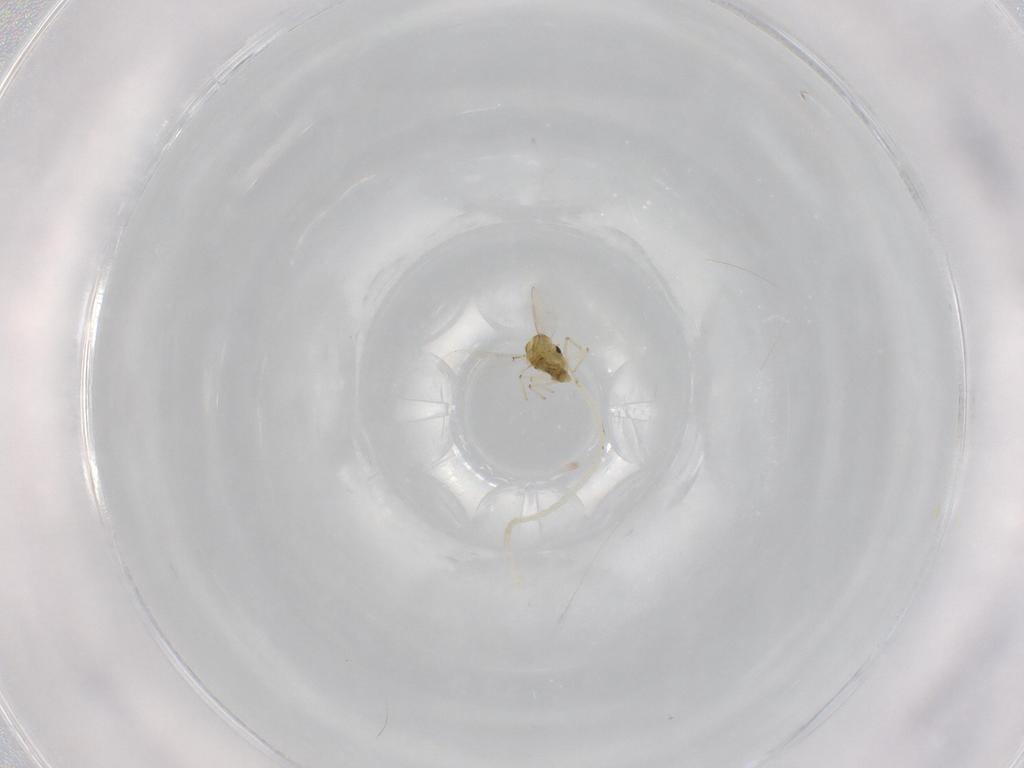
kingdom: Animalia
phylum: Arthropoda
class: Insecta
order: Diptera
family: Chironomidae
